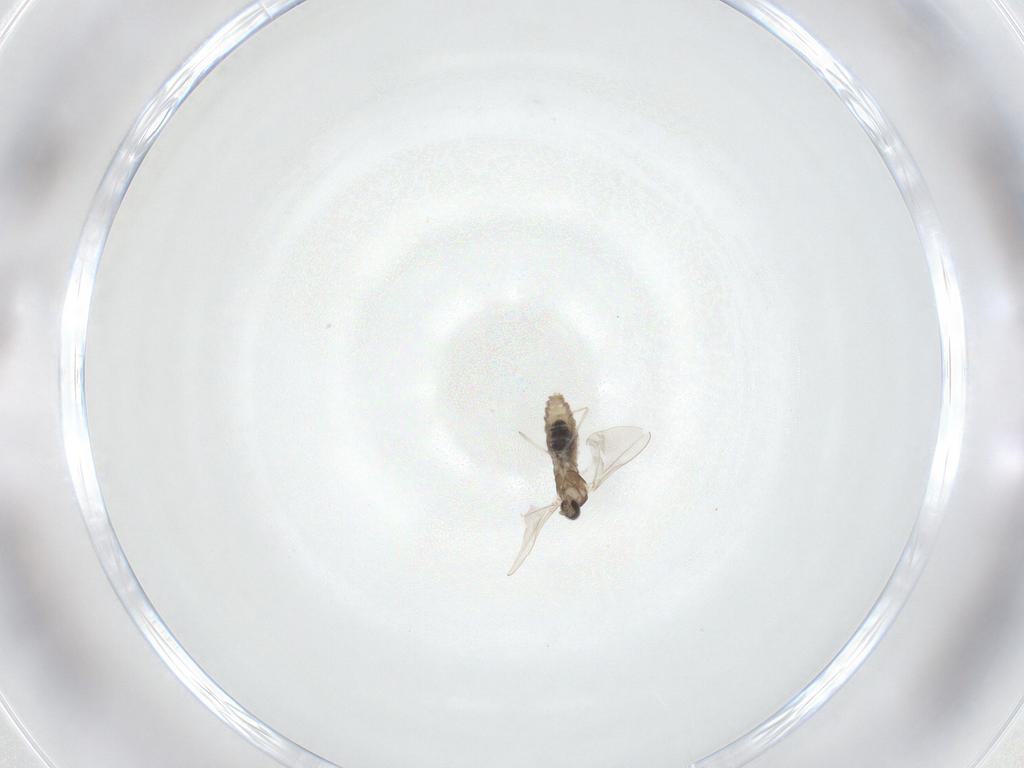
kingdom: Animalia
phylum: Arthropoda
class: Insecta
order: Diptera
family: Cecidomyiidae
